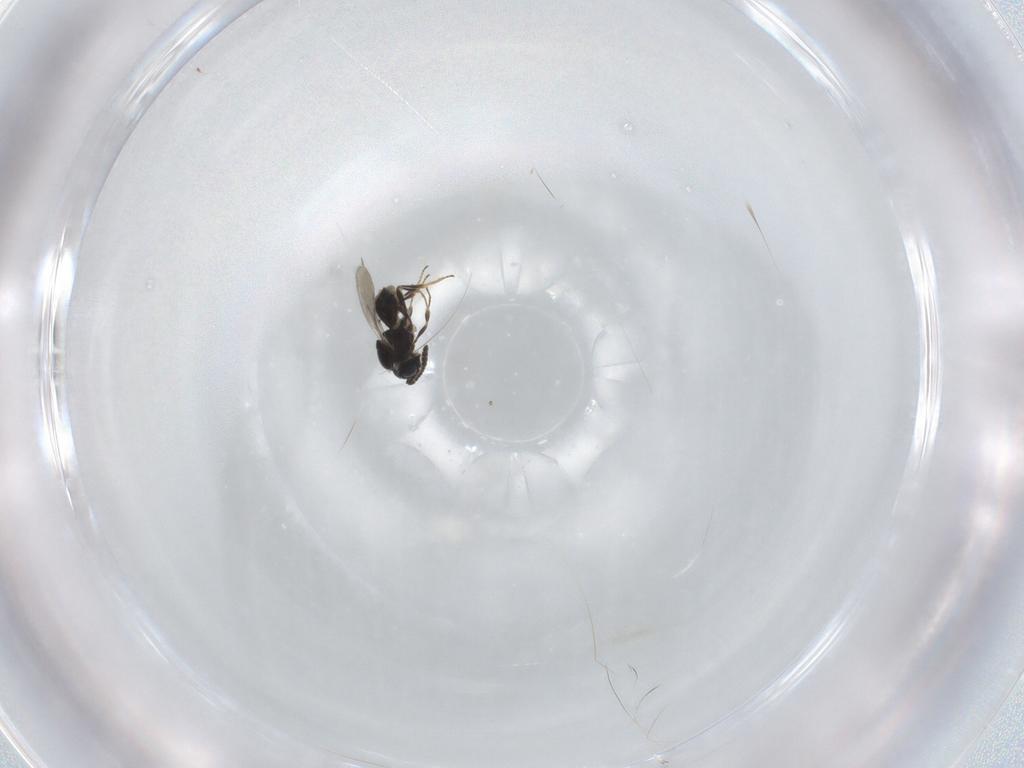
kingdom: Animalia
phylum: Arthropoda
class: Insecta
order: Hymenoptera
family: Scelionidae
